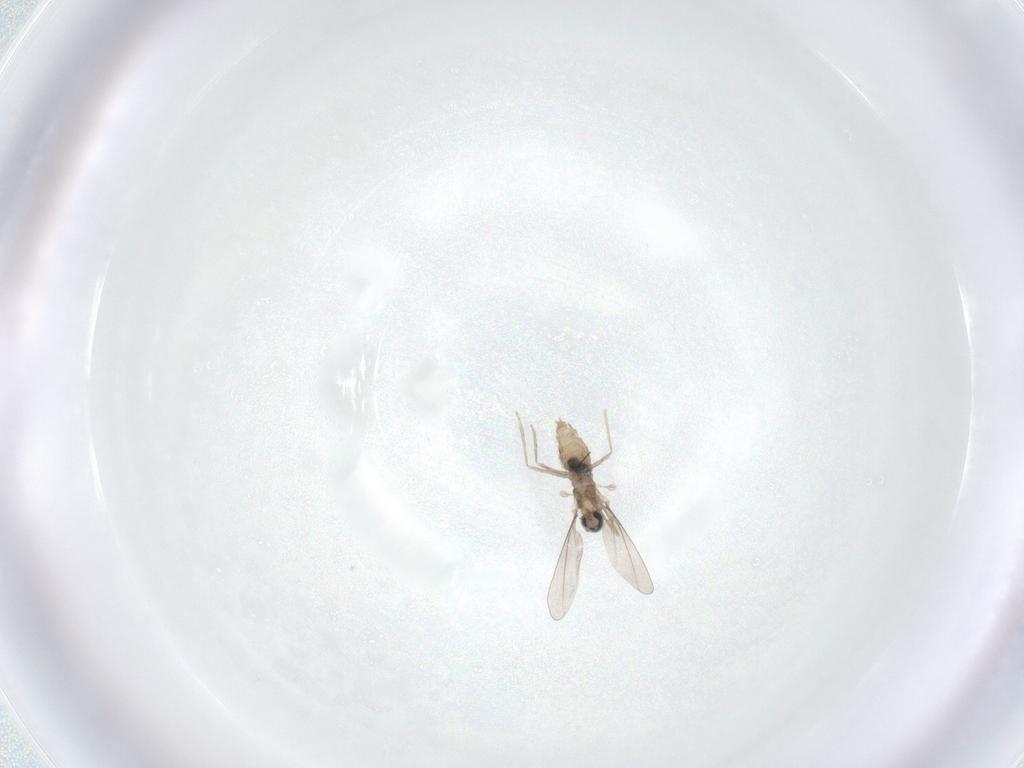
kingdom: Animalia
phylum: Arthropoda
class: Insecta
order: Diptera
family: Cecidomyiidae
